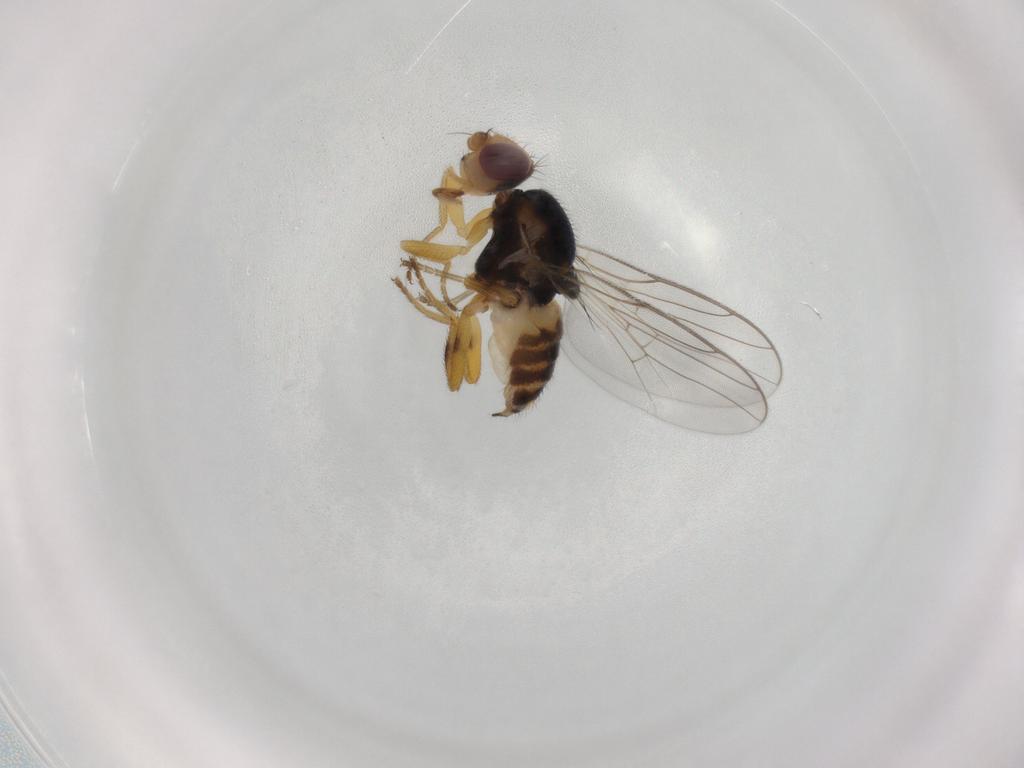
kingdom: Animalia
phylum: Arthropoda
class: Insecta
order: Diptera
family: Chloropidae
